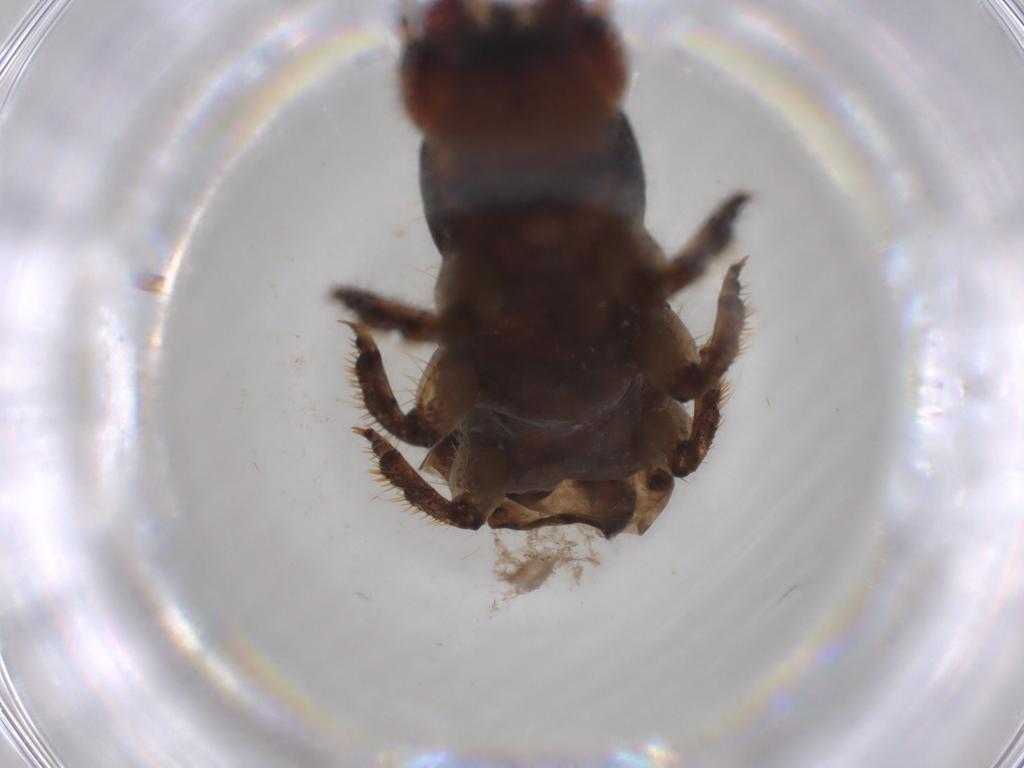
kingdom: Animalia
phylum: Arthropoda
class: Insecta
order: Coleoptera
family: Carabidae
